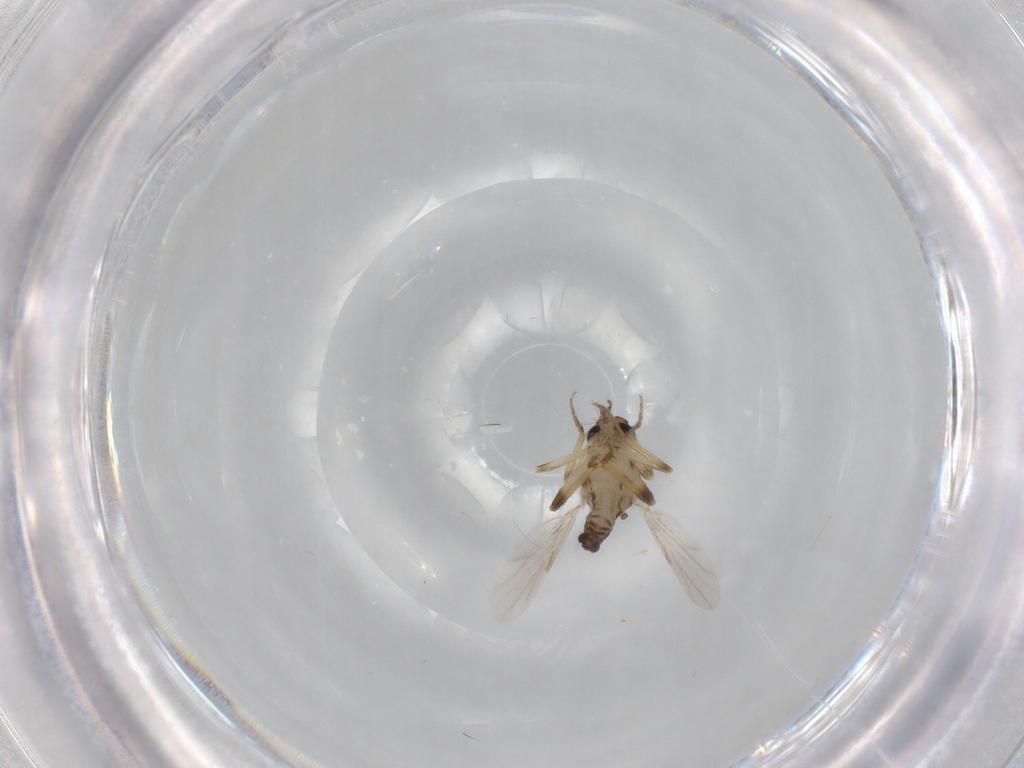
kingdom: Animalia
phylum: Arthropoda
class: Insecta
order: Diptera
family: Ceratopogonidae
